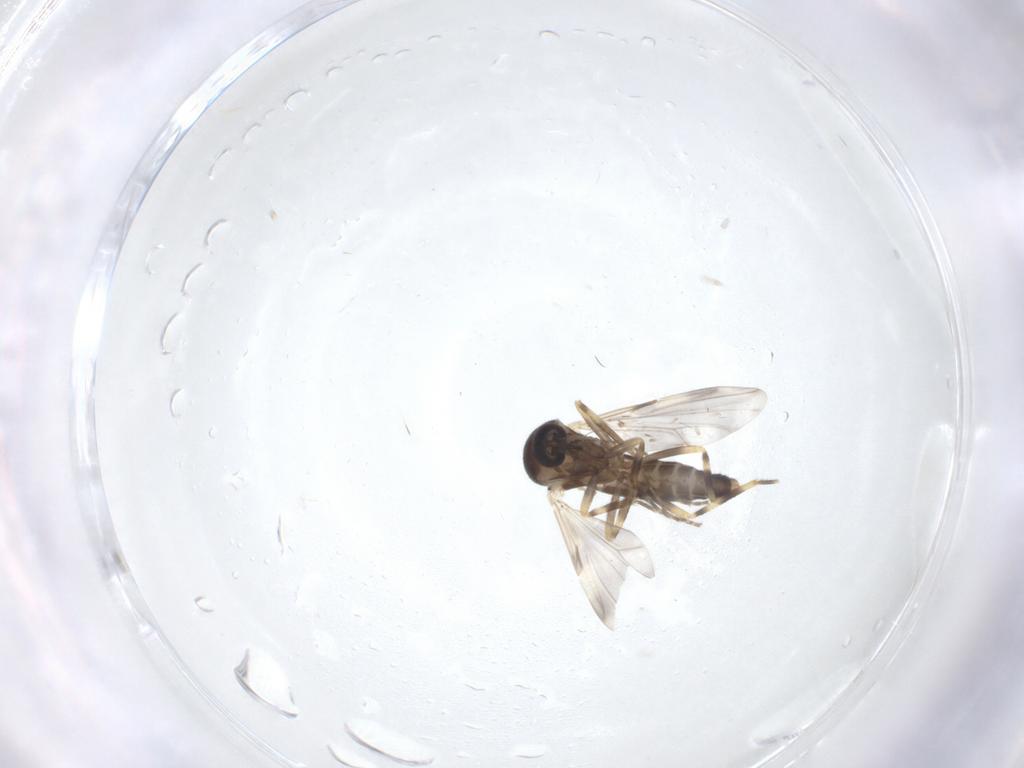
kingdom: Animalia
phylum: Arthropoda
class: Insecta
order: Diptera
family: Ceratopogonidae
